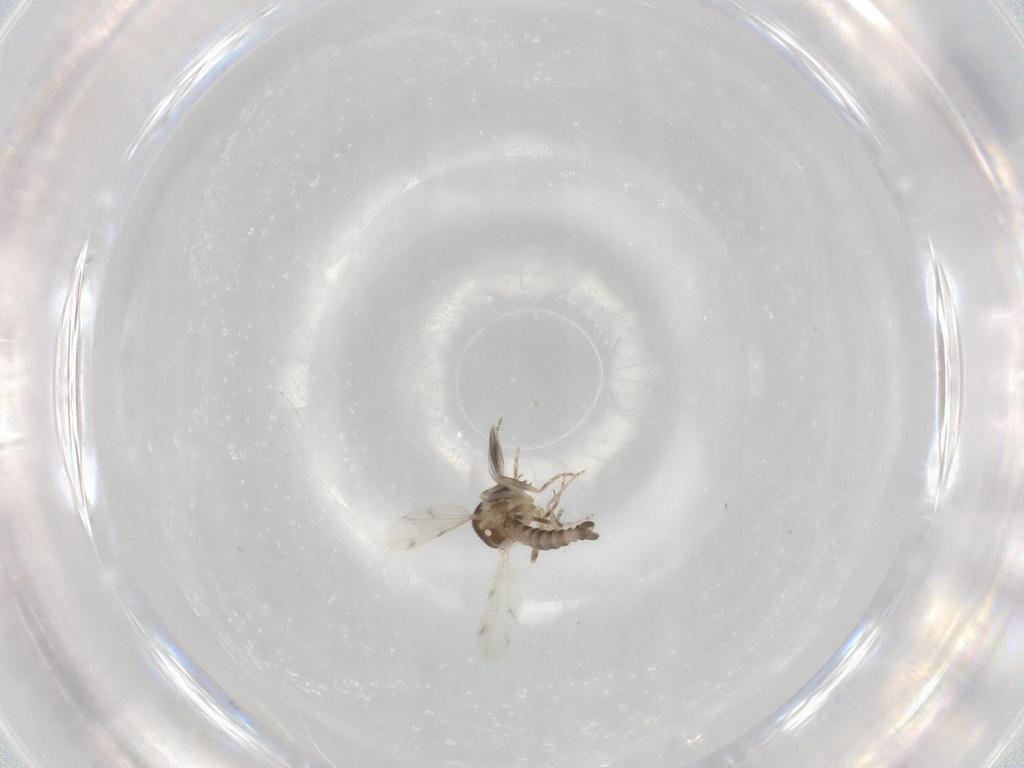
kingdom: Animalia
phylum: Arthropoda
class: Insecta
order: Diptera
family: Ceratopogonidae
